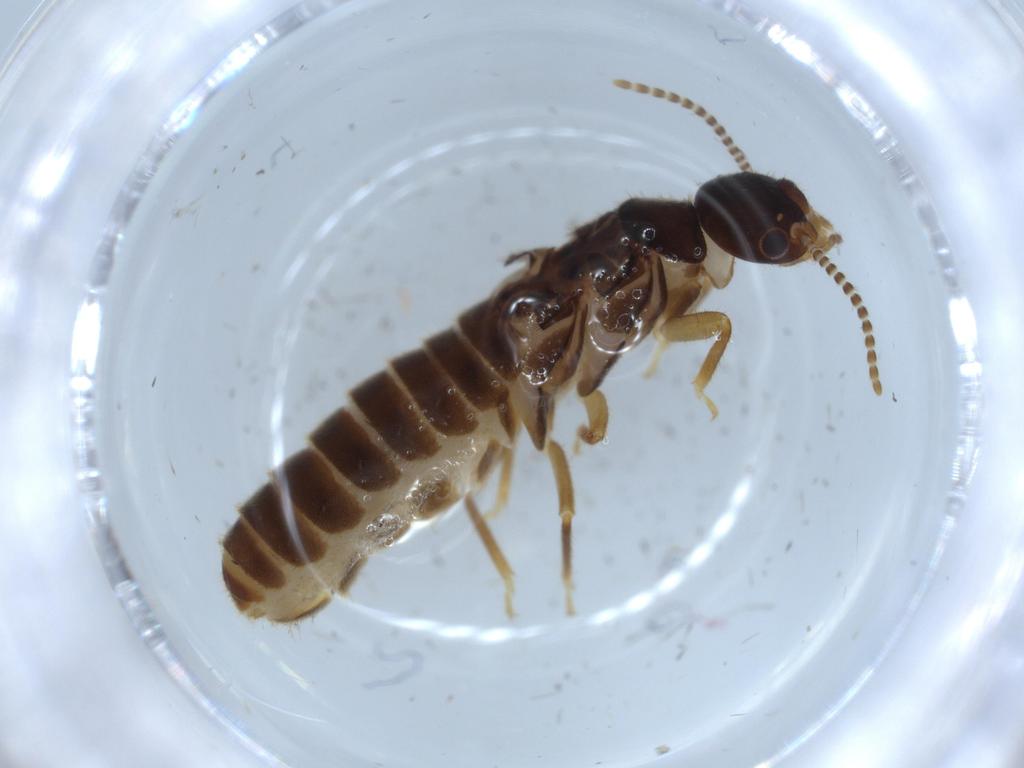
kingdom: Animalia
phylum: Arthropoda
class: Insecta
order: Blattodea
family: Termitidae
